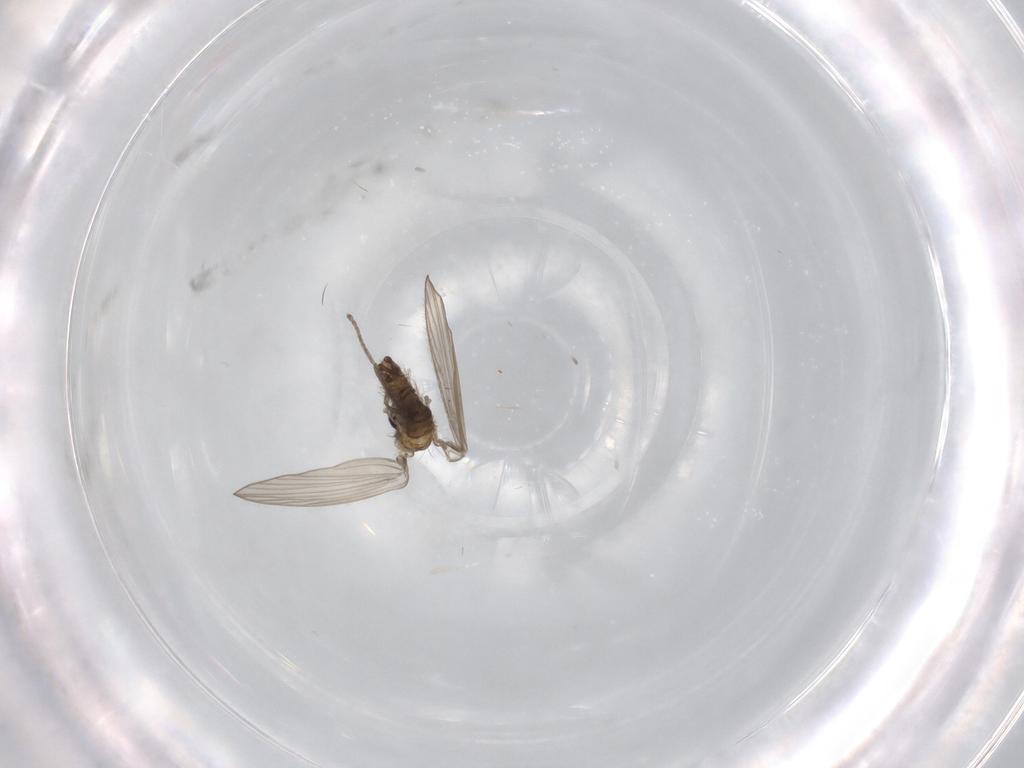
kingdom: Animalia
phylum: Arthropoda
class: Insecta
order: Diptera
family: Psychodidae
